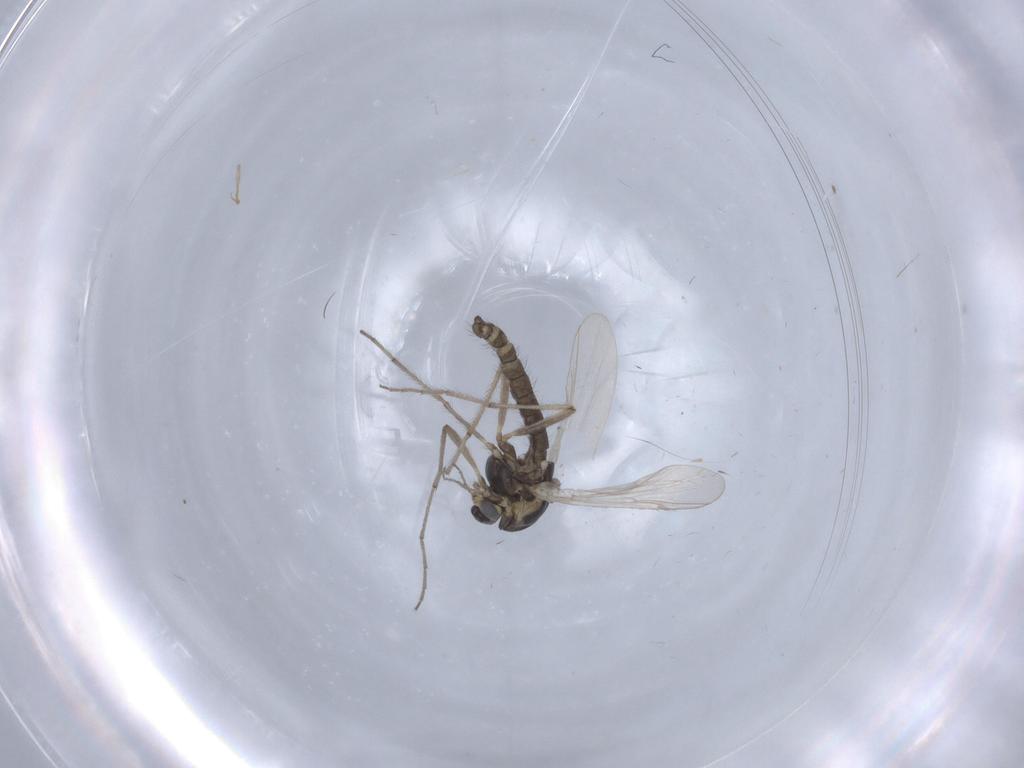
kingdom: Animalia
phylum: Arthropoda
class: Insecta
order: Diptera
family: Chironomidae
